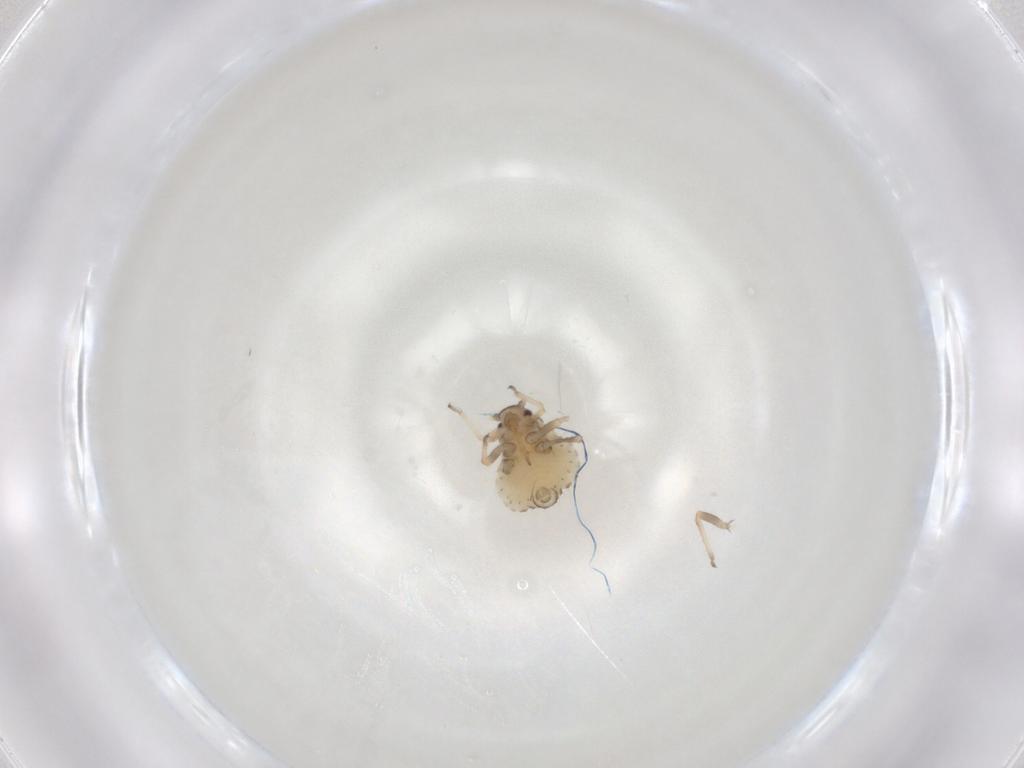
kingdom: Animalia
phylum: Arthropoda
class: Insecta
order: Hemiptera
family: Aphididae
